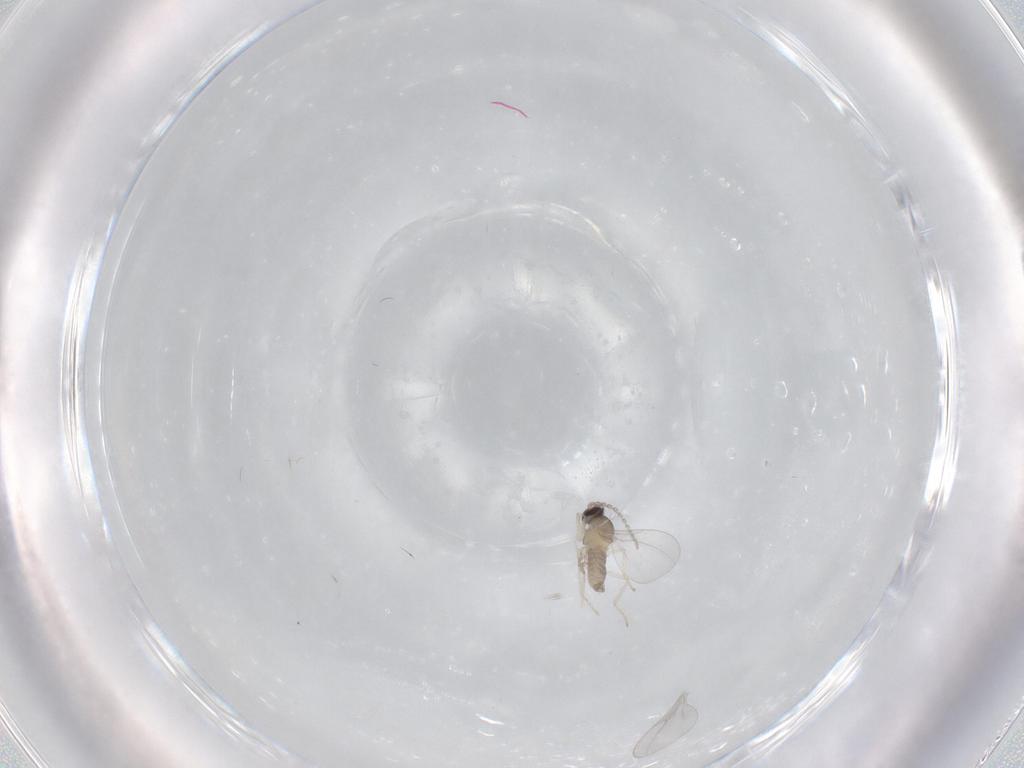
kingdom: Animalia
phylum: Arthropoda
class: Insecta
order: Diptera
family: Cecidomyiidae
